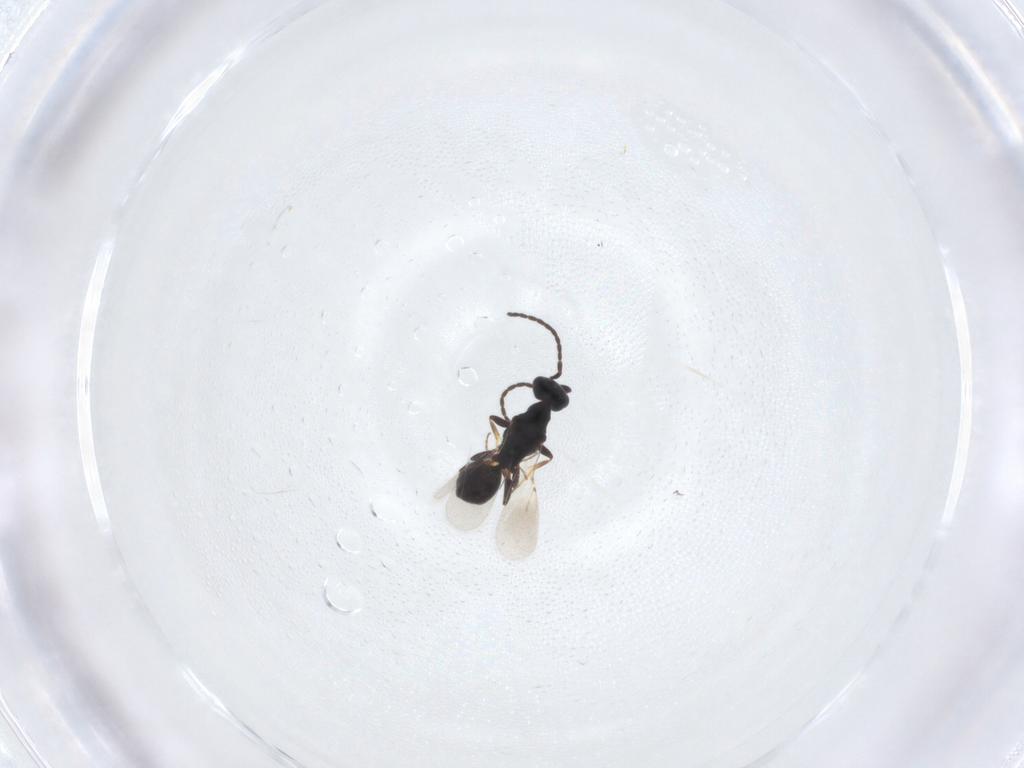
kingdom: Animalia
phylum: Arthropoda
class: Insecta
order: Hymenoptera
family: Bethylidae
